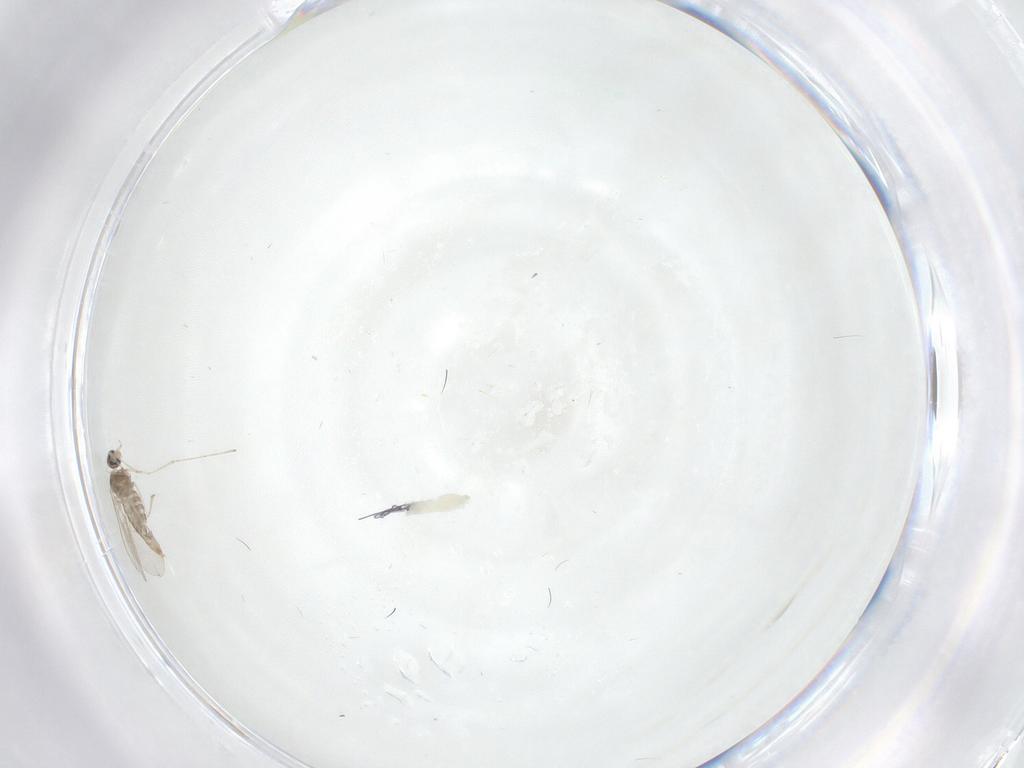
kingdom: Animalia
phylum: Arthropoda
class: Insecta
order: Diptera
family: Cecidomyiidae
